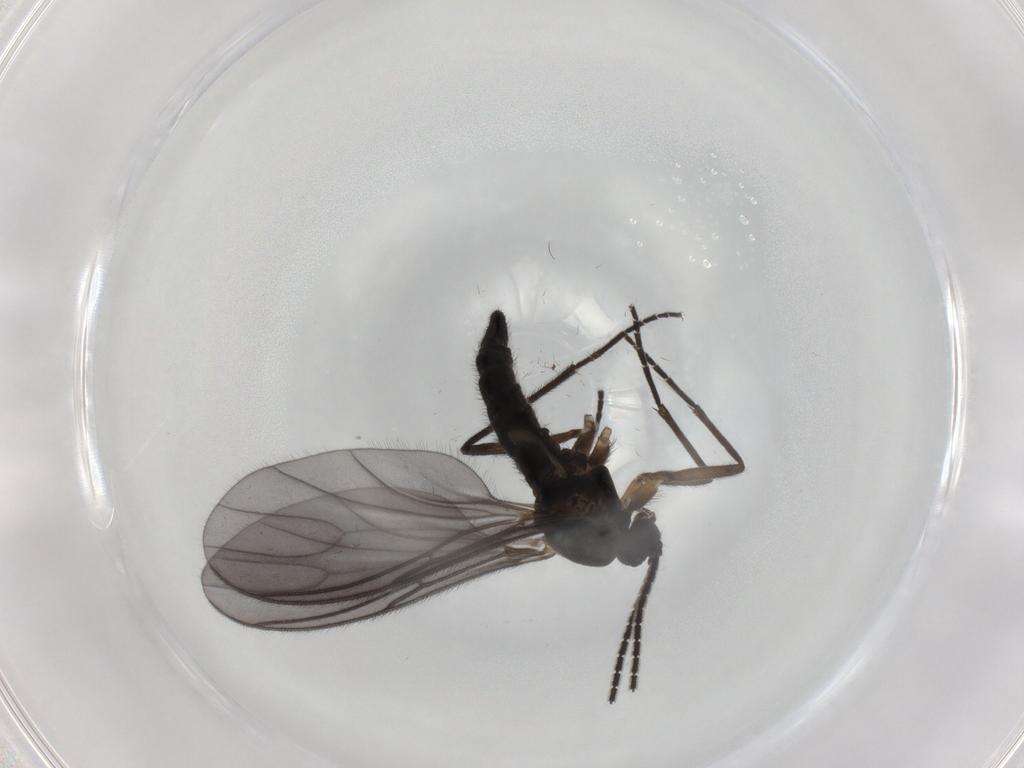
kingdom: Animalia
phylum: Arthropoda
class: Insecta
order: Diptera
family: Sciaridae
